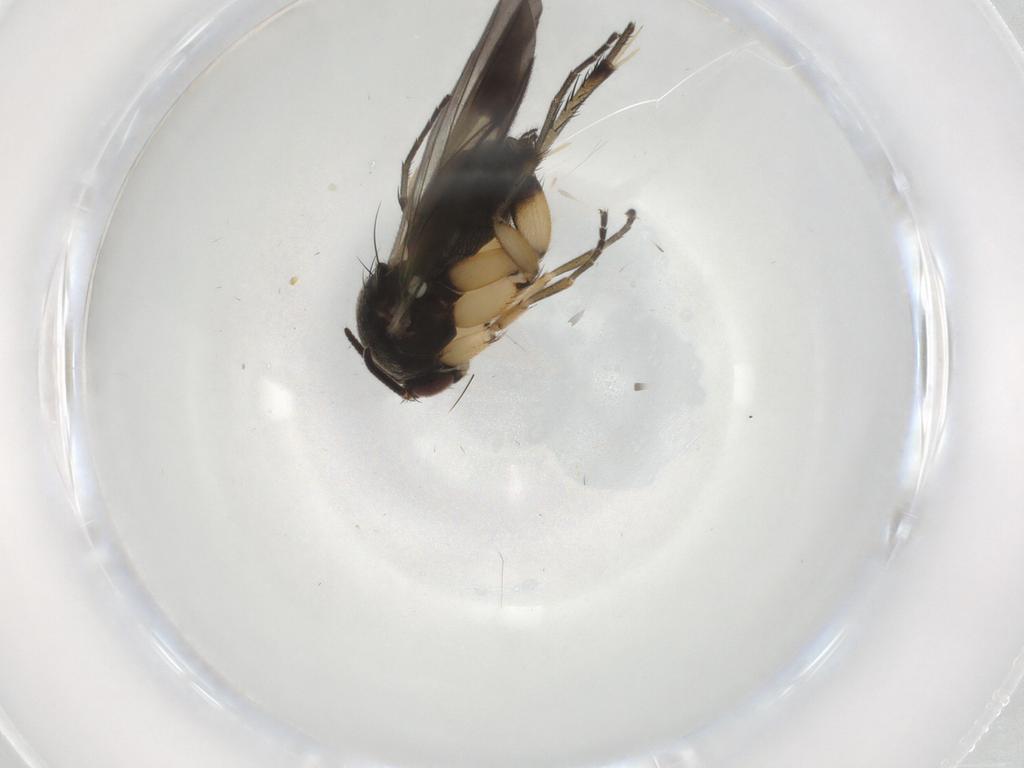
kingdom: Animalia
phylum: Arthropoda
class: Insecta
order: Diptera
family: Mycetophilidae
